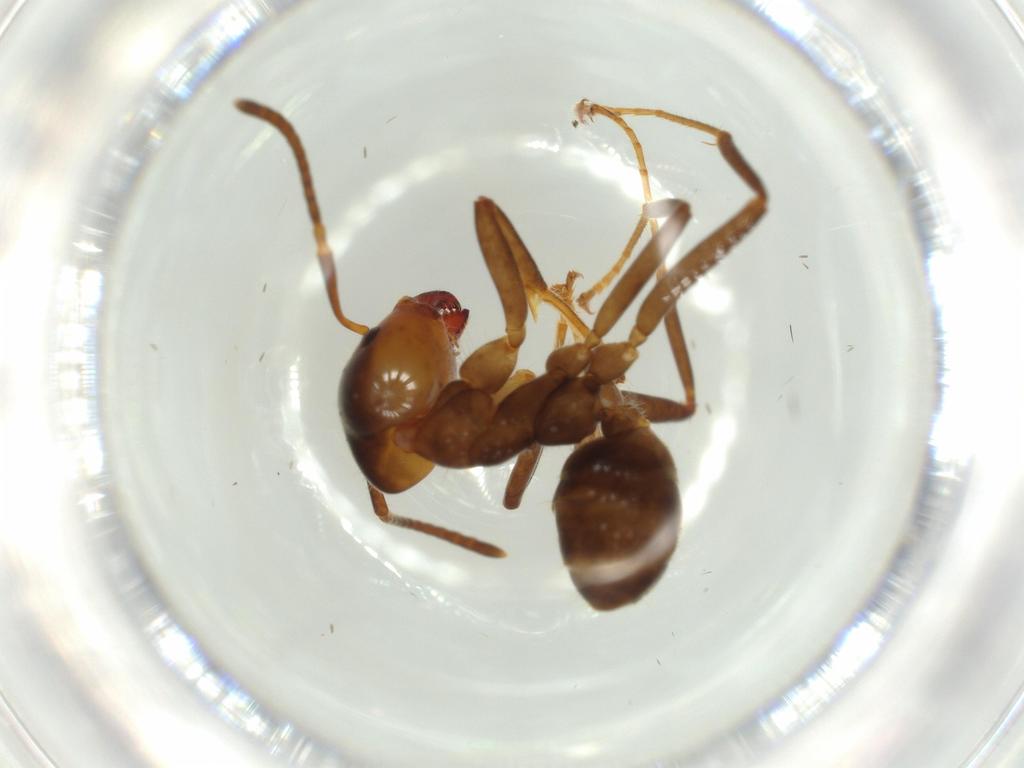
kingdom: Animalia
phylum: Arthropoda
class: Insecta
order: Hymenoptera
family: Formicidae
